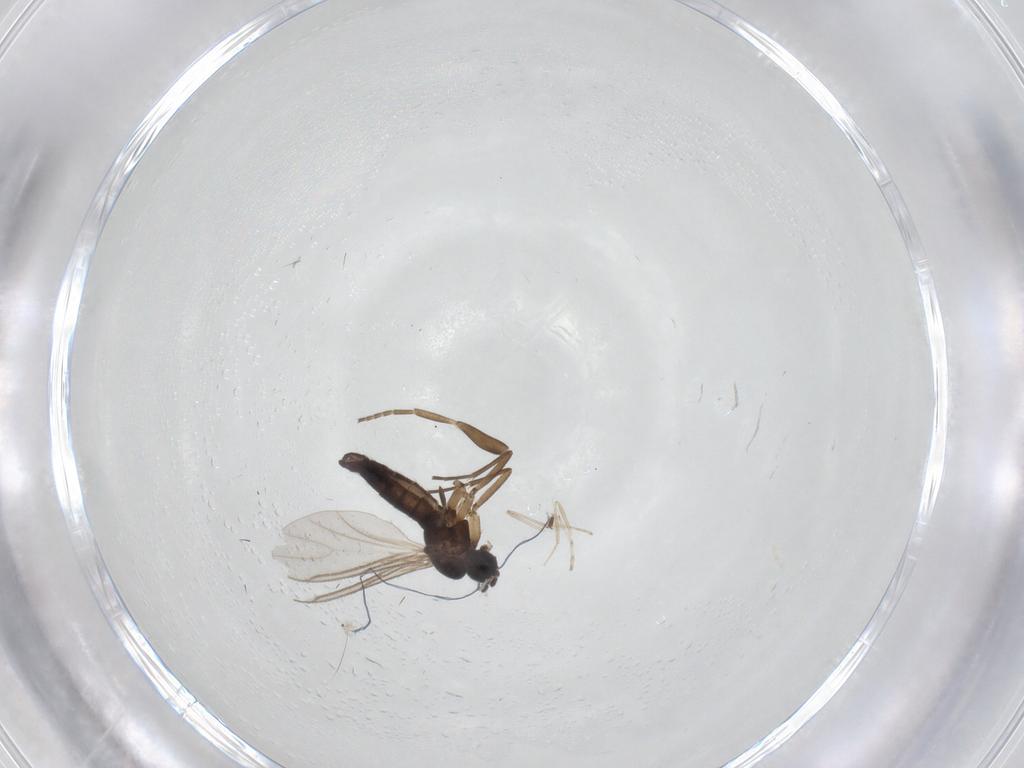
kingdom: Animalia
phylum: Arthropoda
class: Insecta
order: Diptera
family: Sciaridae
